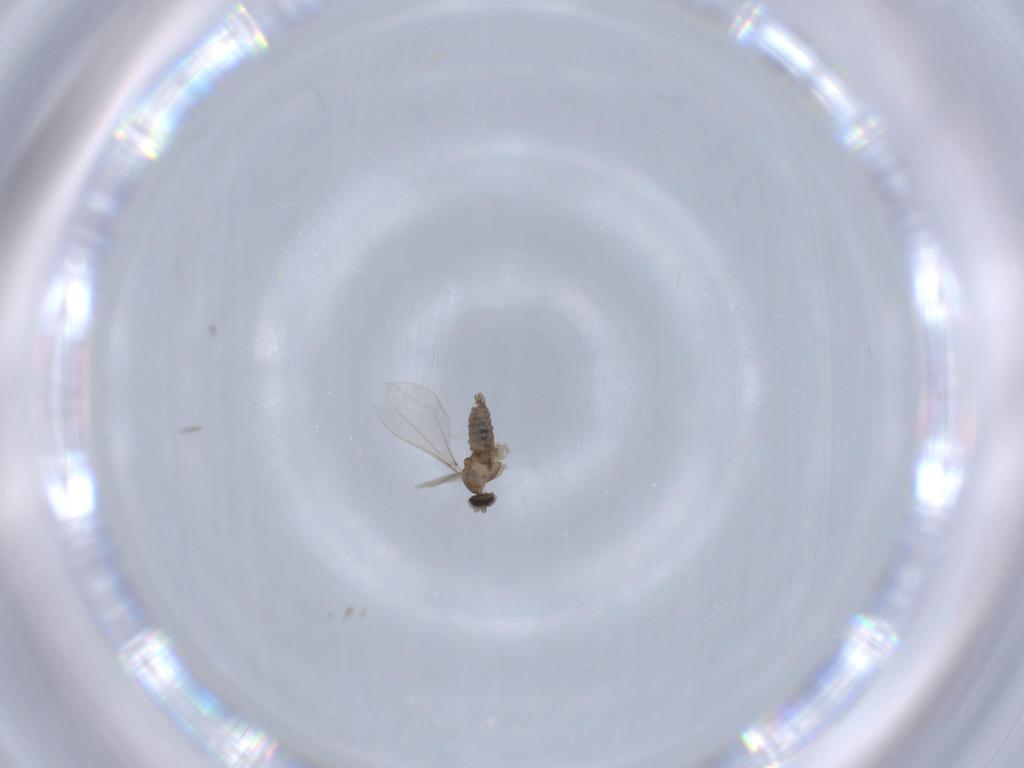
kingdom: Animalia
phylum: Arthropoda
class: Insecta
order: Diptera
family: Cecidomyiidae
